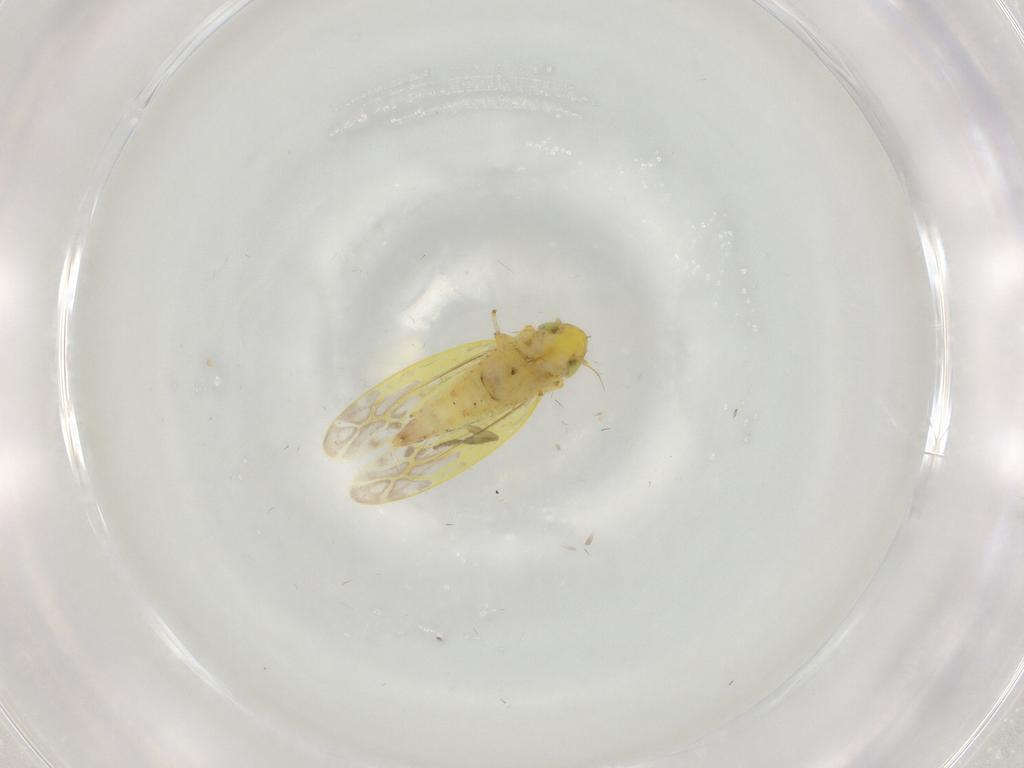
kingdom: Animalia
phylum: Arthropoda
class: Insecta
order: Hemiptera
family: Cicadellidae
